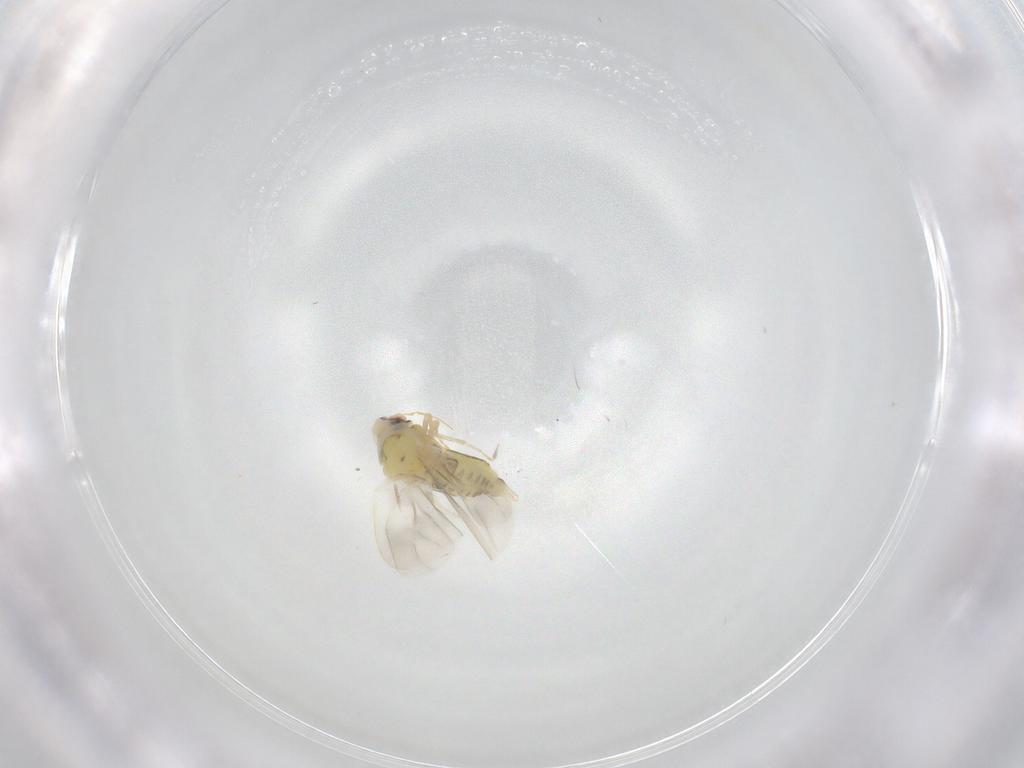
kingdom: Animalia
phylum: Arthropoda
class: Insecta
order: Hemiptera
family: Aleyrodidae
